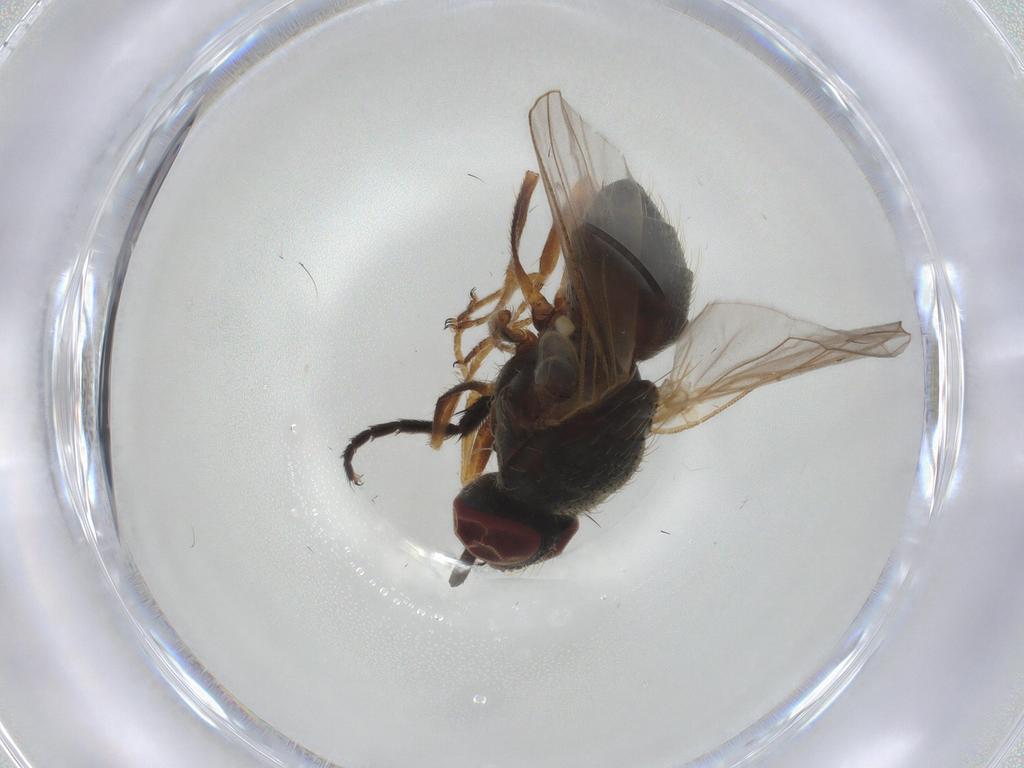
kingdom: Animalia
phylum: Arthropoda
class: Insecta
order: Diptera
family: Muscidae
